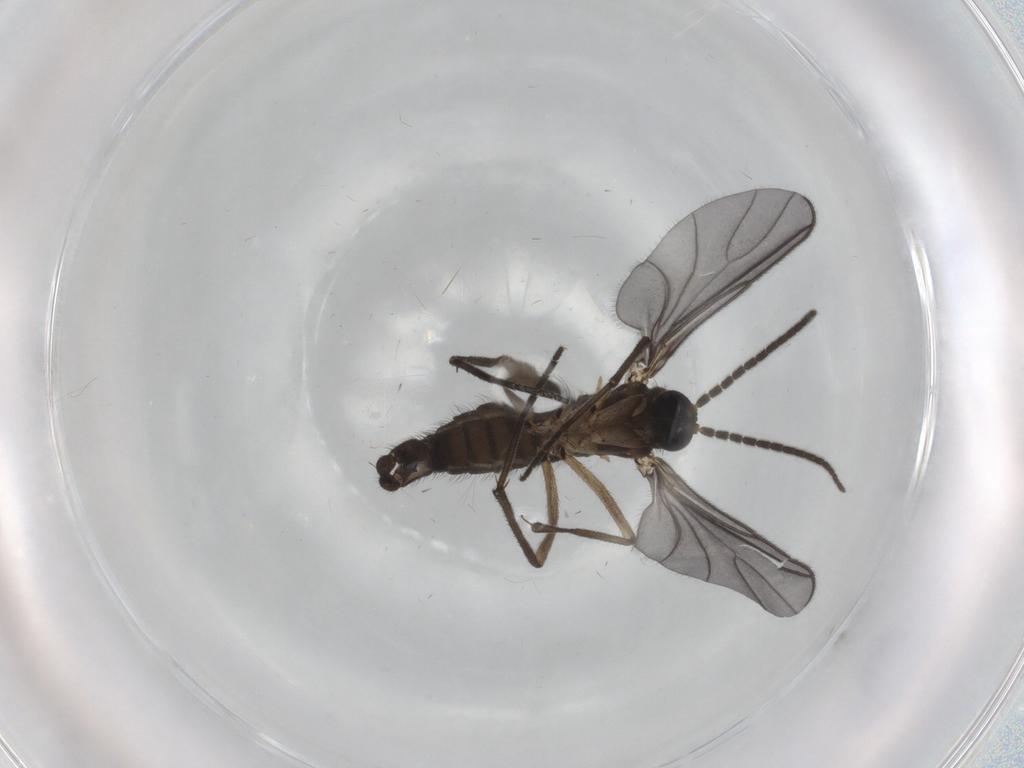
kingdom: Animalia
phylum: Arthropoda
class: Insecta
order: Diptera
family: Sciaridae
